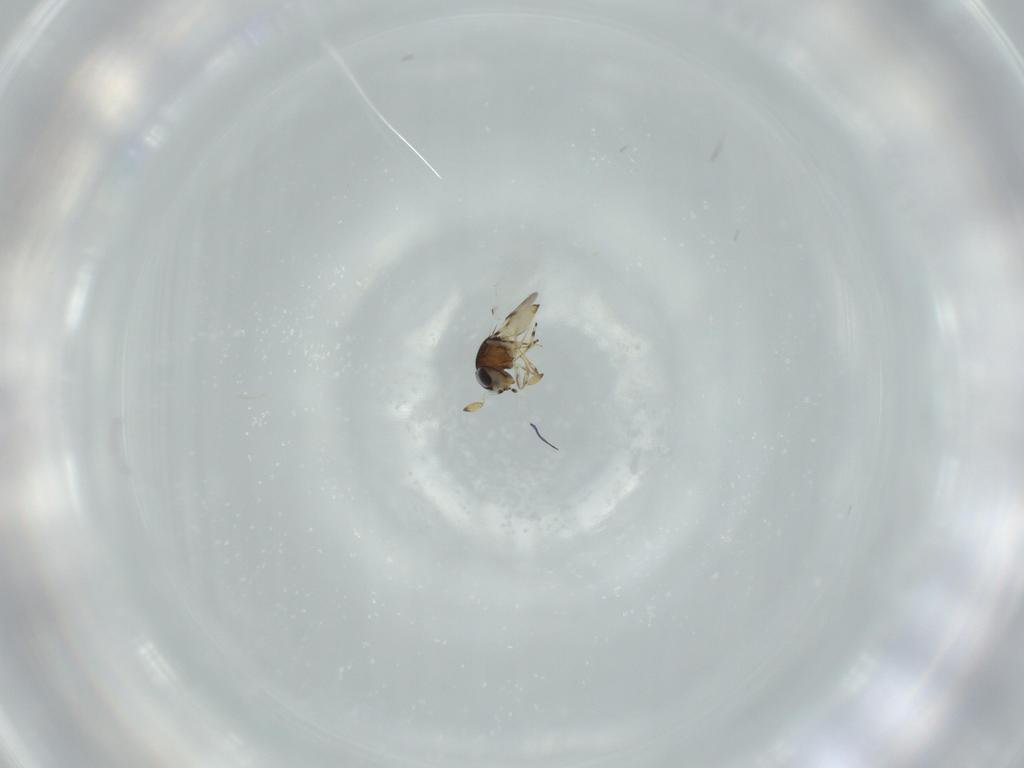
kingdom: Animalia
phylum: Arthropoda
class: Insecta
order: Hymenoptera
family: Scelionidae
